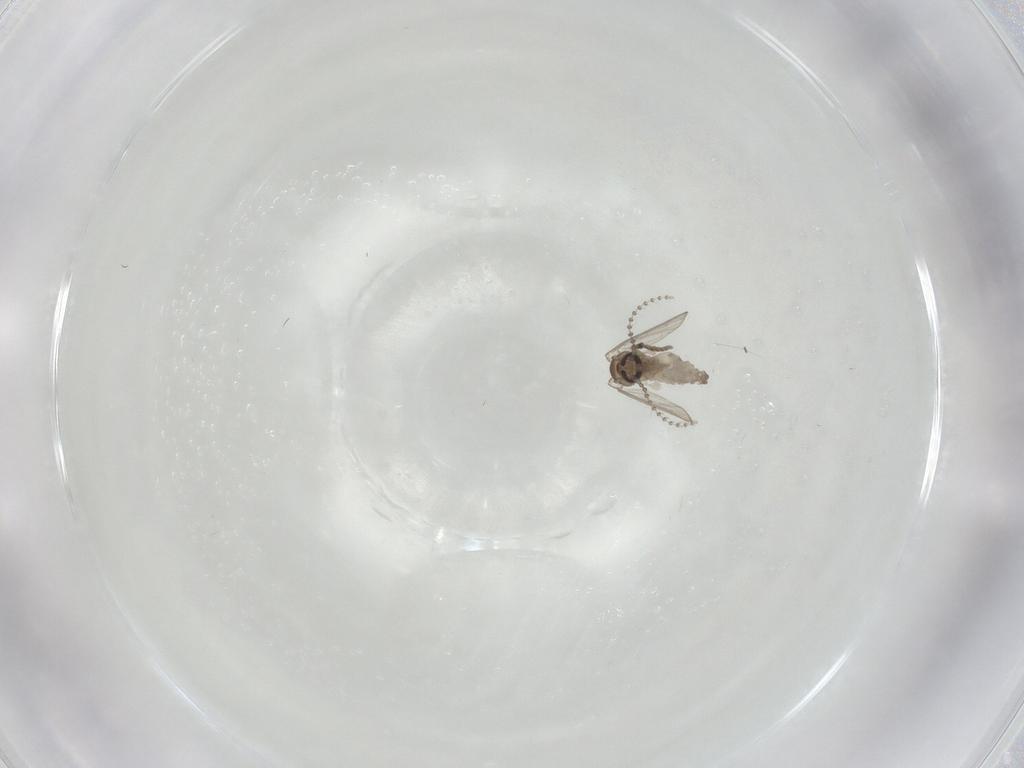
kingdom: Animalia
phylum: Arthropoda
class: Insecta
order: Diptera
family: Psychodidae
